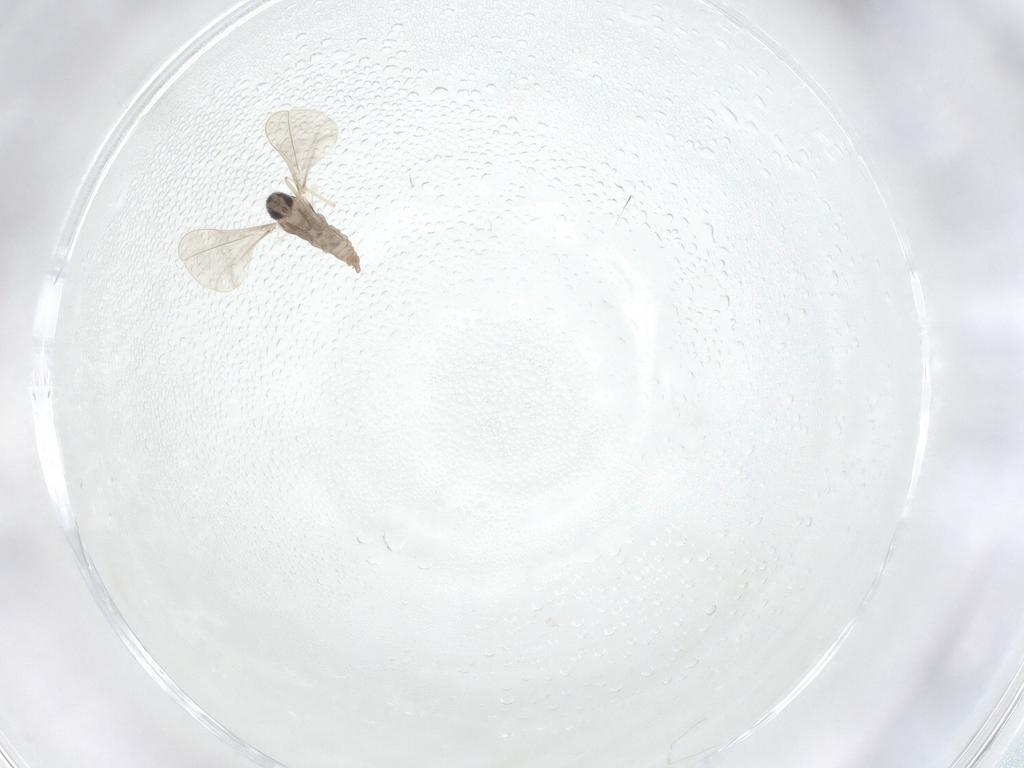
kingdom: Animalia
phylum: Arthropoda
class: Insecta
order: Diptera
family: Cecidomyiidae
